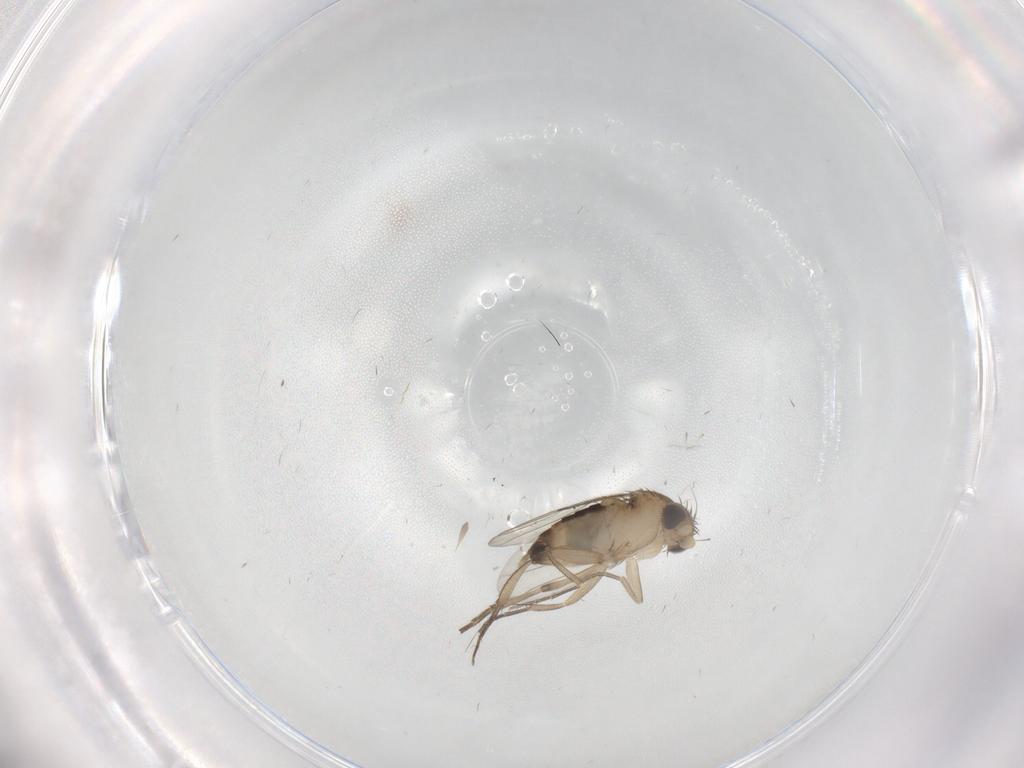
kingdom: Animalia
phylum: Arthropoda
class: Insecta
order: Diptera
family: Phoridae
